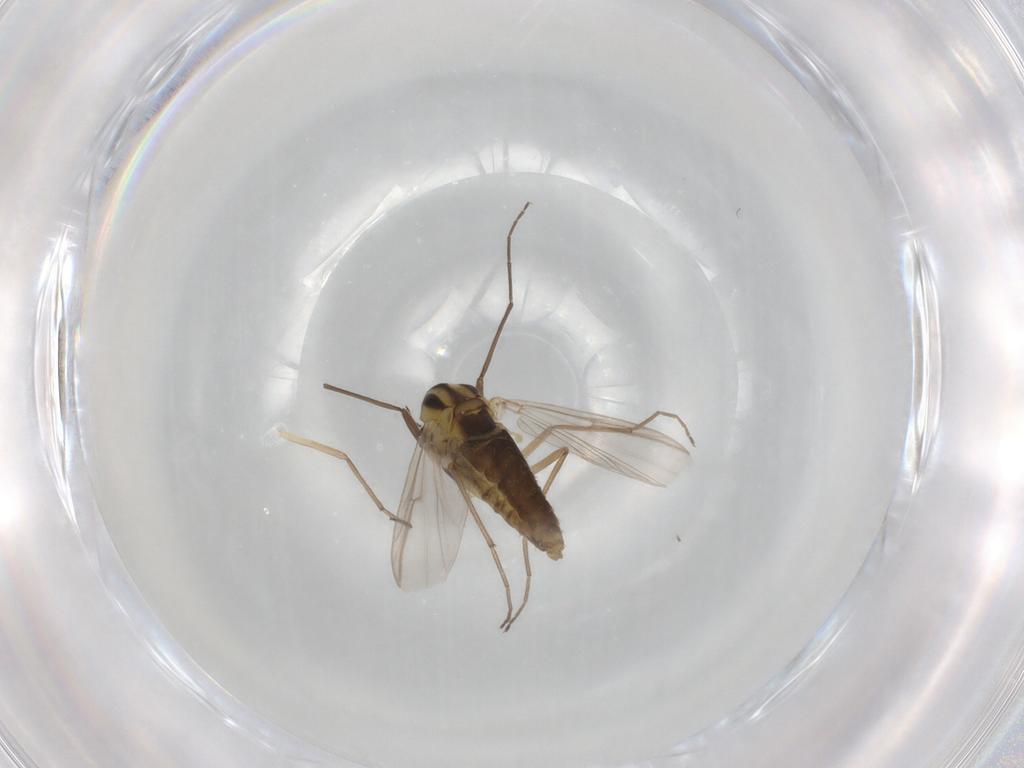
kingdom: Animalia
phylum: Arthropoda
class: Insecta
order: Diptera
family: Chironomidae
